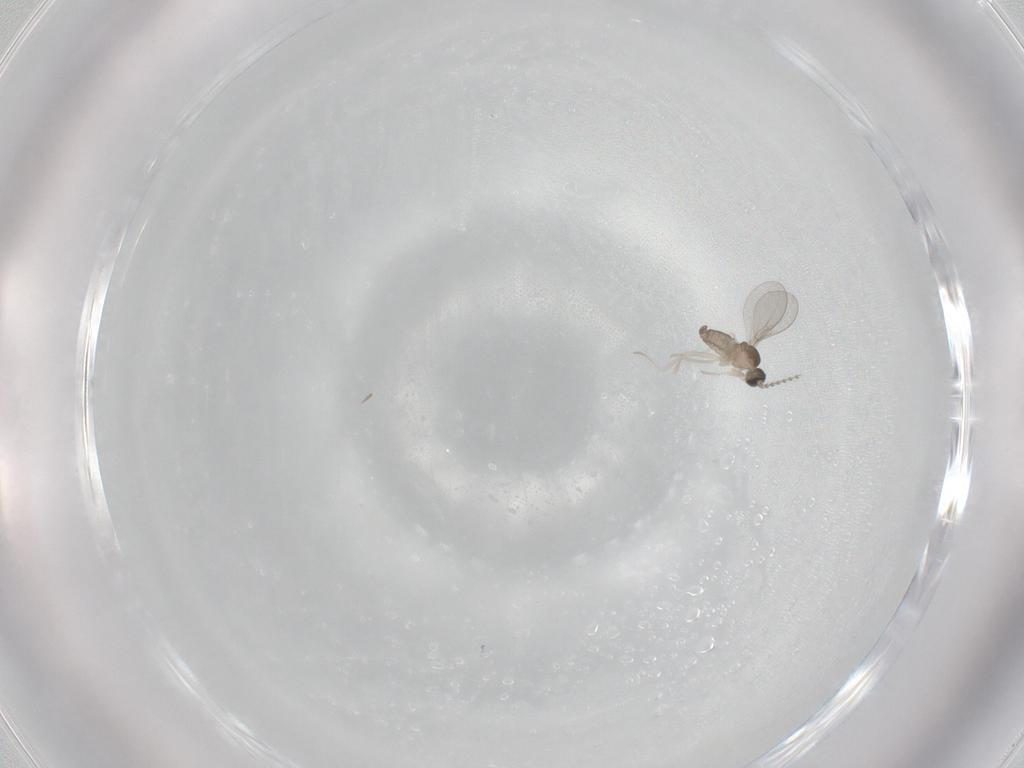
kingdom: Animalia
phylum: Arthropoda
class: Insecta
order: Diptera
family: Cecidomyiidae
